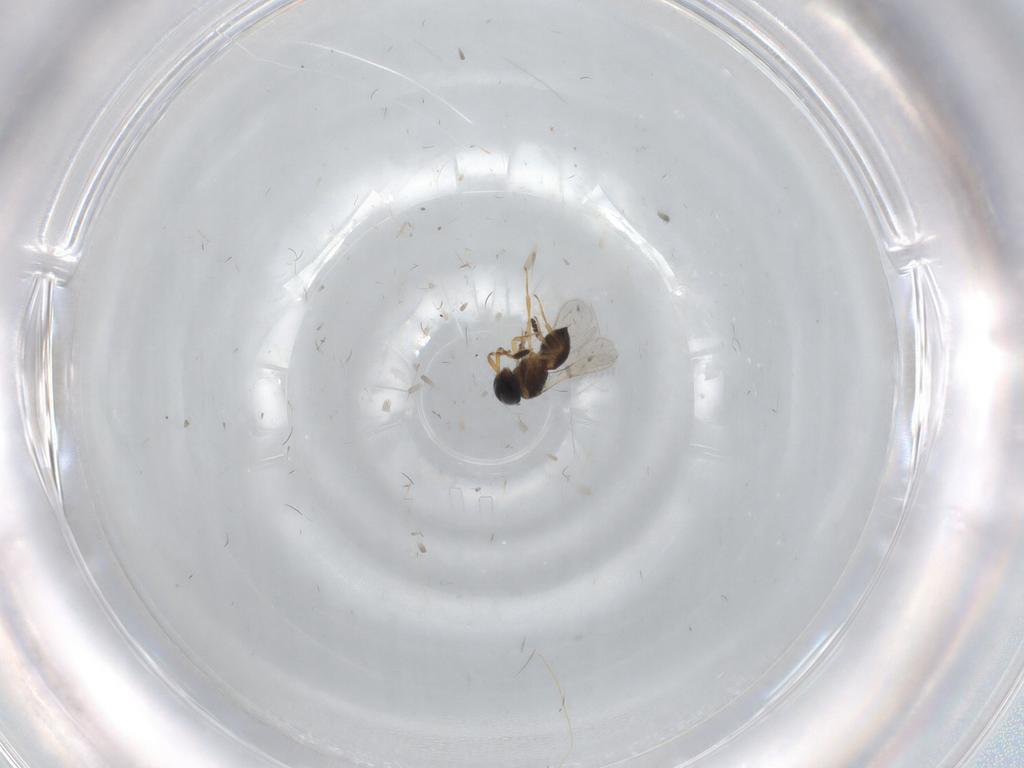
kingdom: Animalia
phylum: Arthropoda
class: Insecta
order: Hymenoptera
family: Scelionidae
